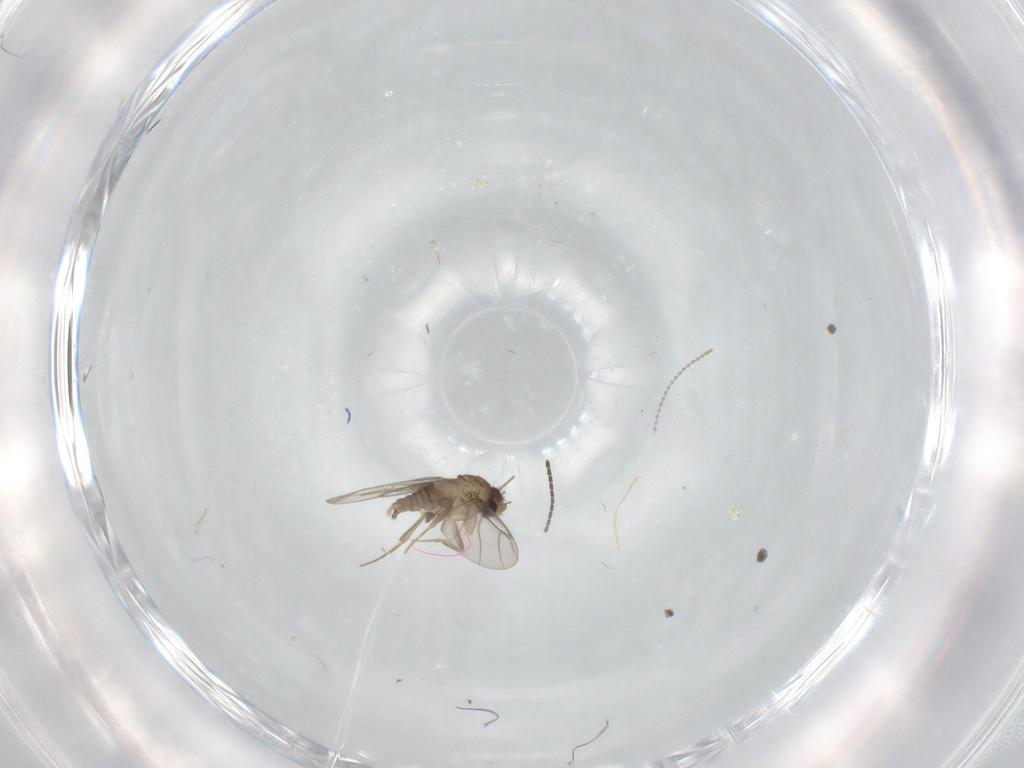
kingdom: Animalia
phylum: Arthropoda
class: Insecta
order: Diptera
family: Sciaridae
